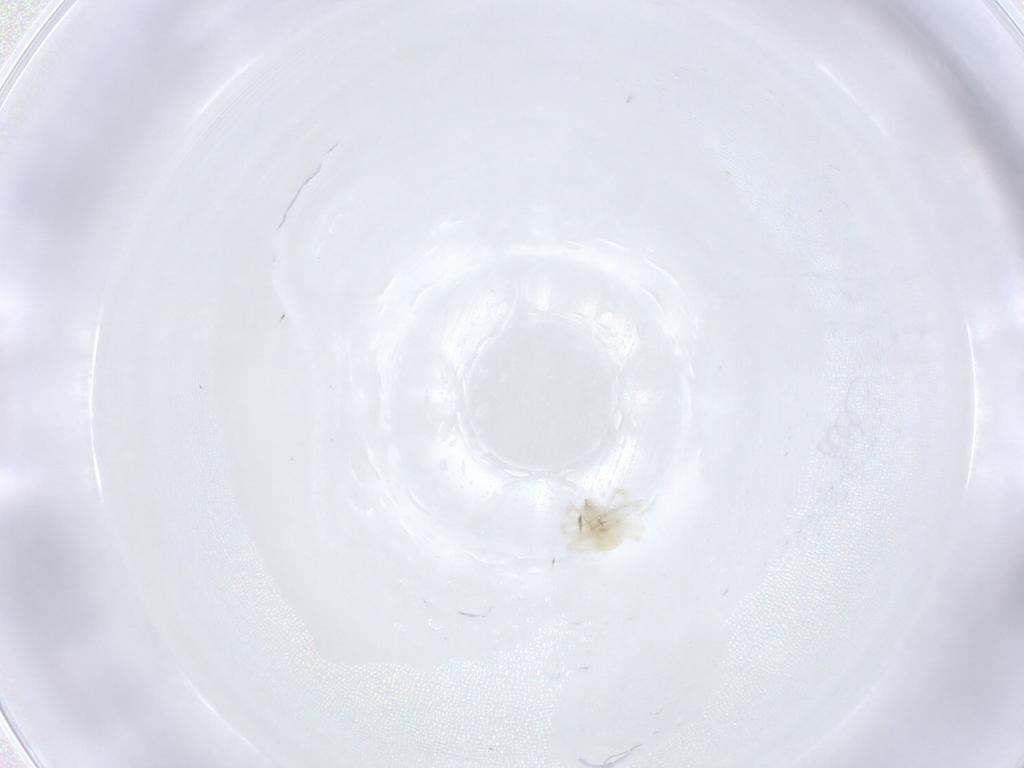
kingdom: Animalia
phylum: Arthropoda
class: Arachnida
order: Trombidiformes
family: Anystidae
